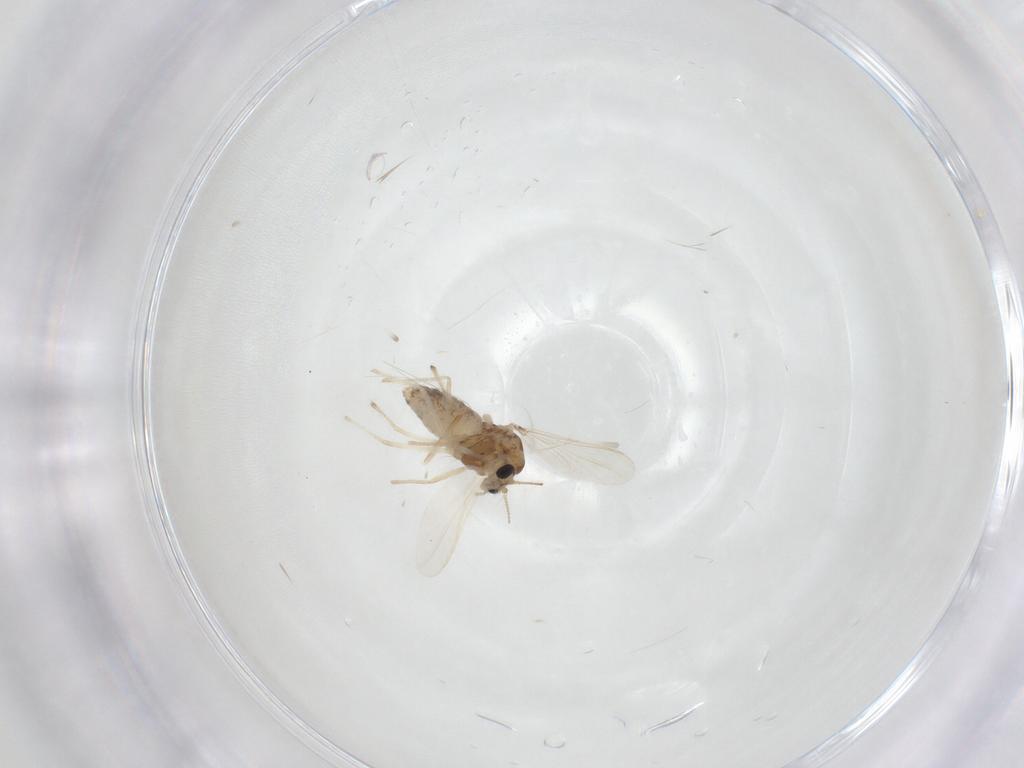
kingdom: Animalia
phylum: Arthropoda
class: Insecta
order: Diptera
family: Chironomidae
